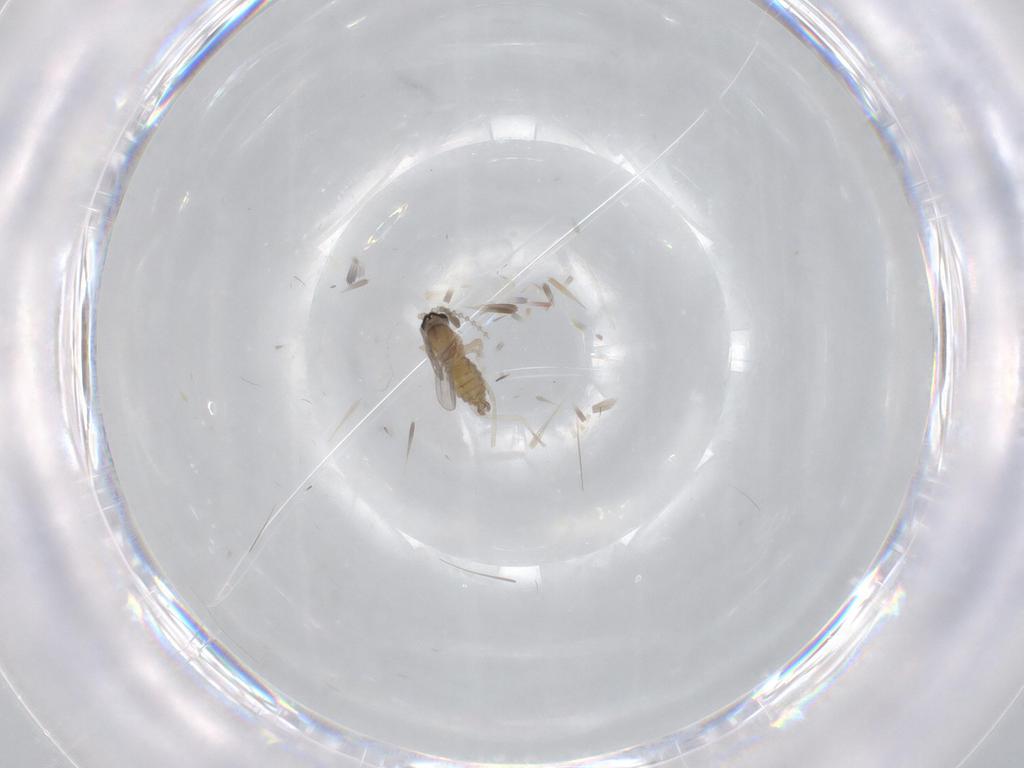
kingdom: Animalia
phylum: Arthropoda
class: Insecta
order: Diptera
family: Cecidomyiidae
